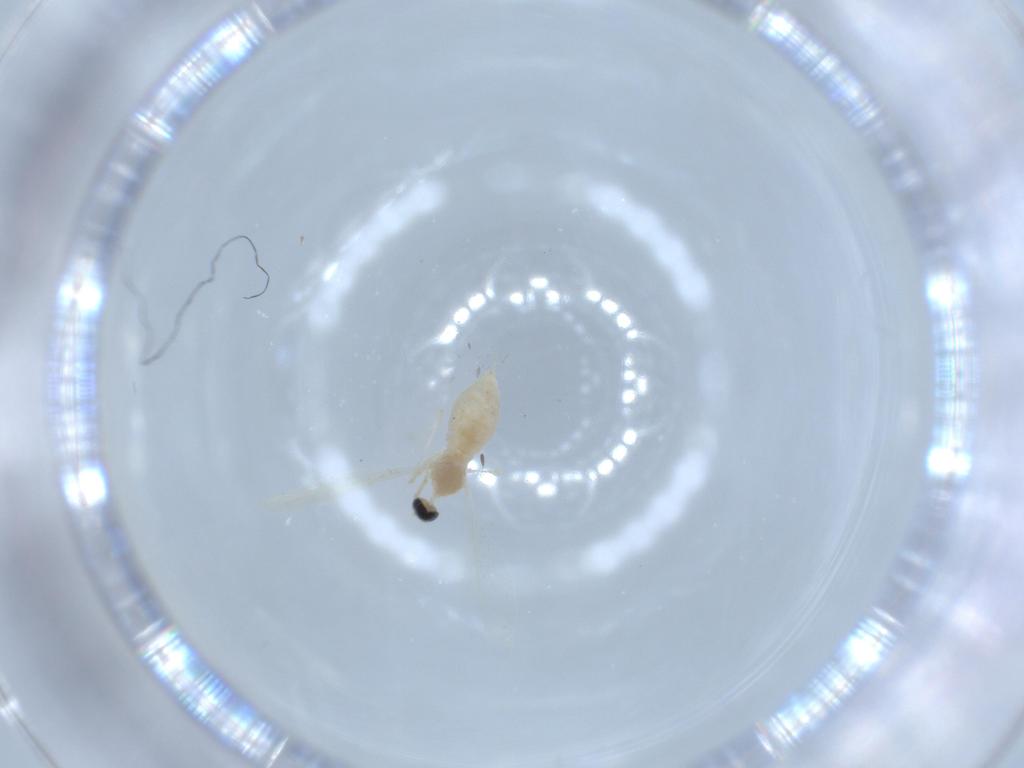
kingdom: Animalia
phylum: Arthropoda
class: Insecta
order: Diptera
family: Cecidomyiidae
